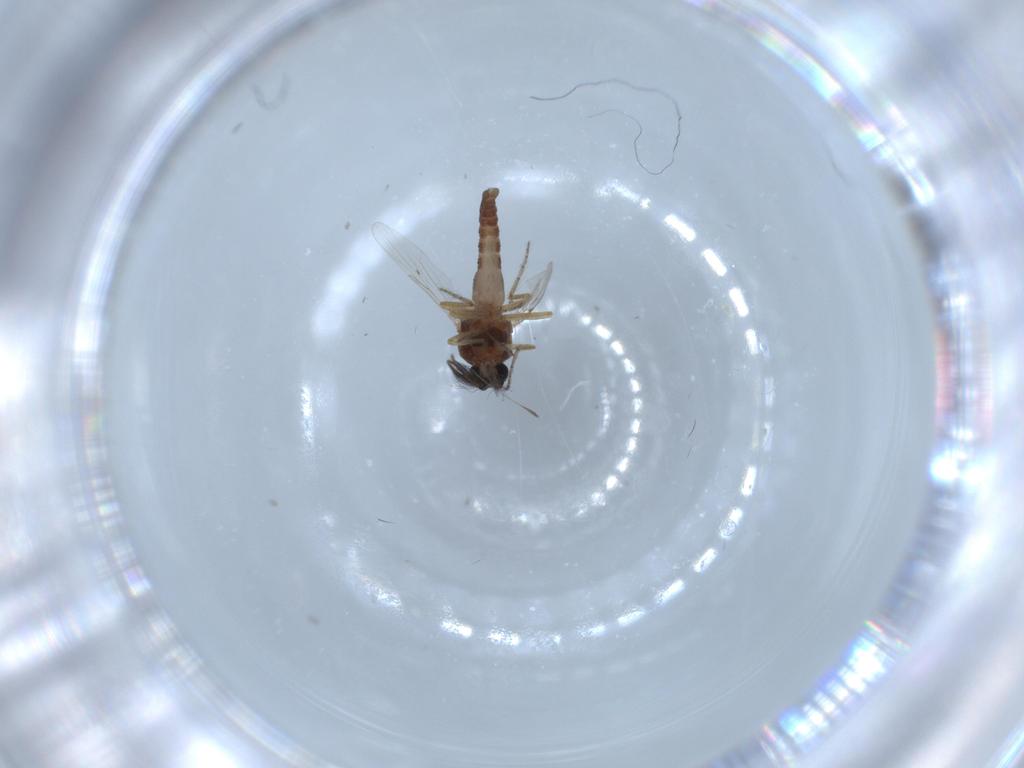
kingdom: Animalia
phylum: Arthropoda
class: Insecta
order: Diptera
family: Ceratopogonidae
